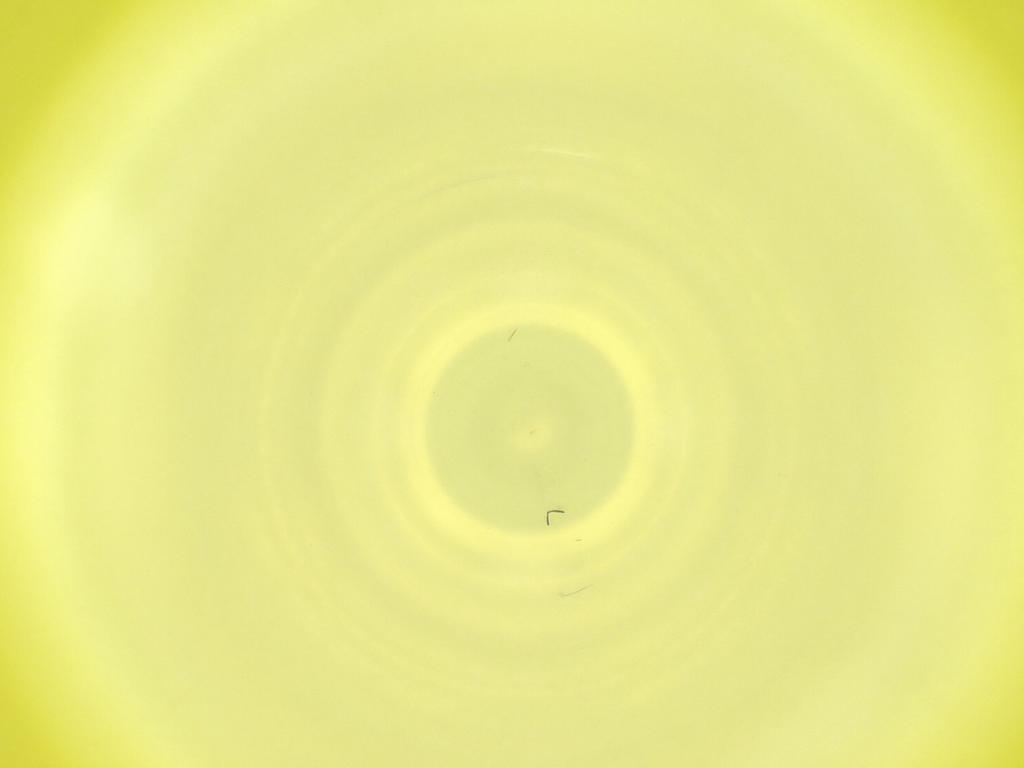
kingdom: Animalia
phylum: Arthropoda
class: Insecta
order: Diptera
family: Cecidomyiidae
